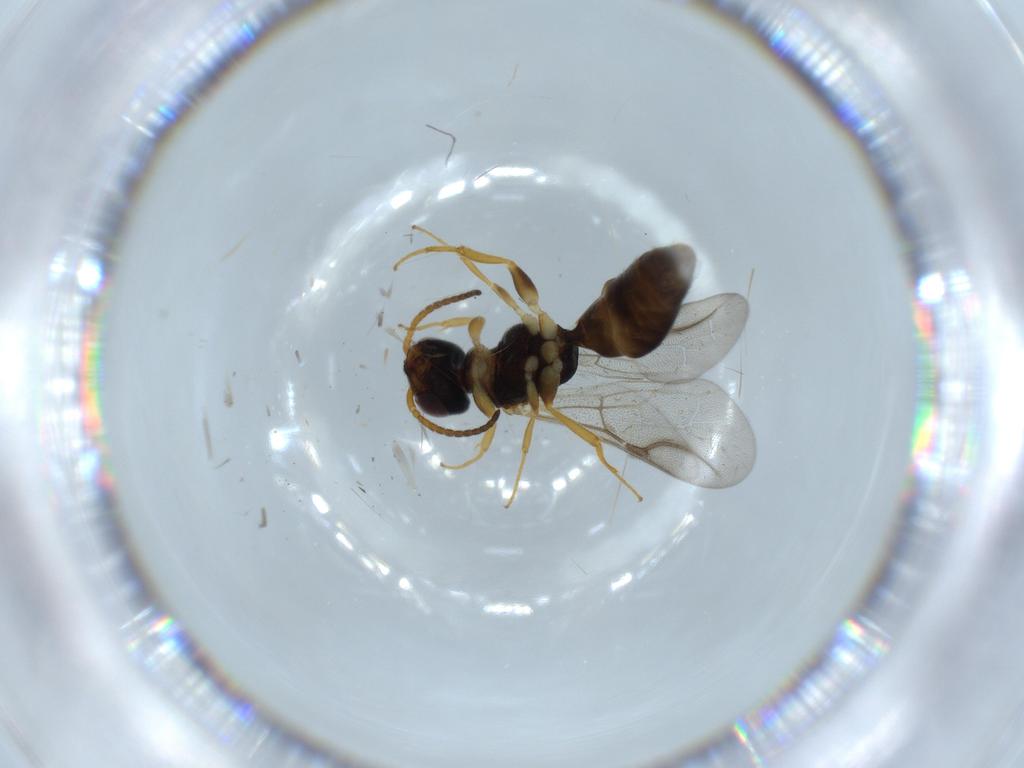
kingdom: Animalia
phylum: Arthropoda
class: Insecta
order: Hymenoptera
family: Bethylidae
